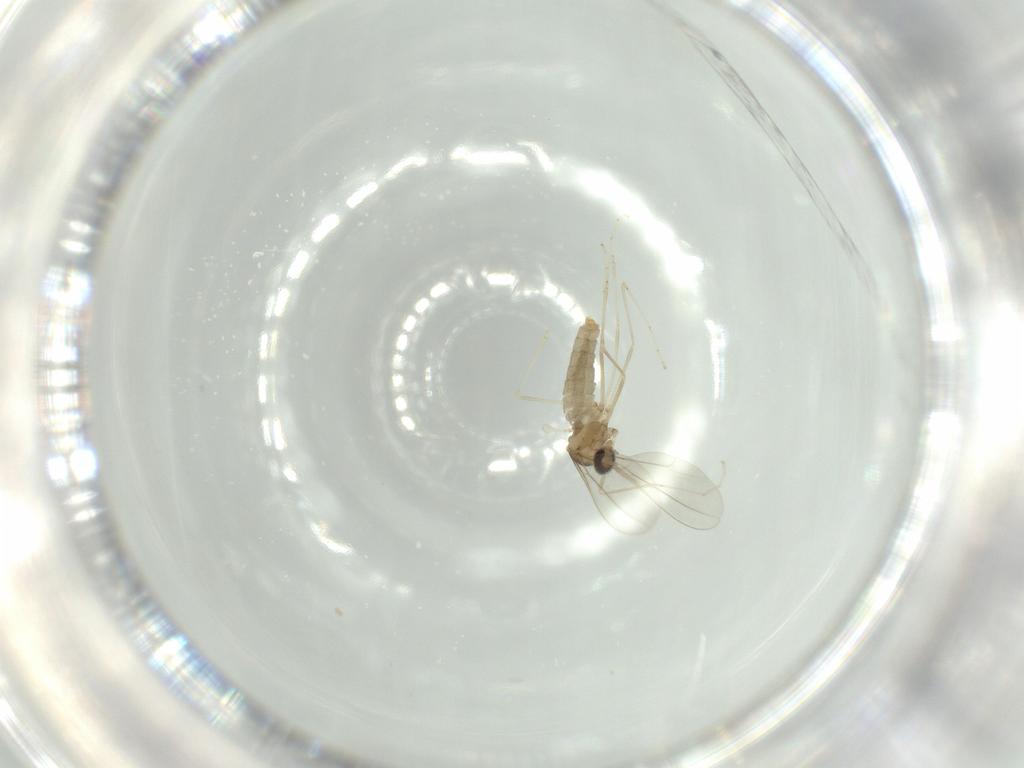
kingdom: Animalia
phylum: Arthropoda
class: Insecta
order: Diptera
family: Cecidomyiidae
